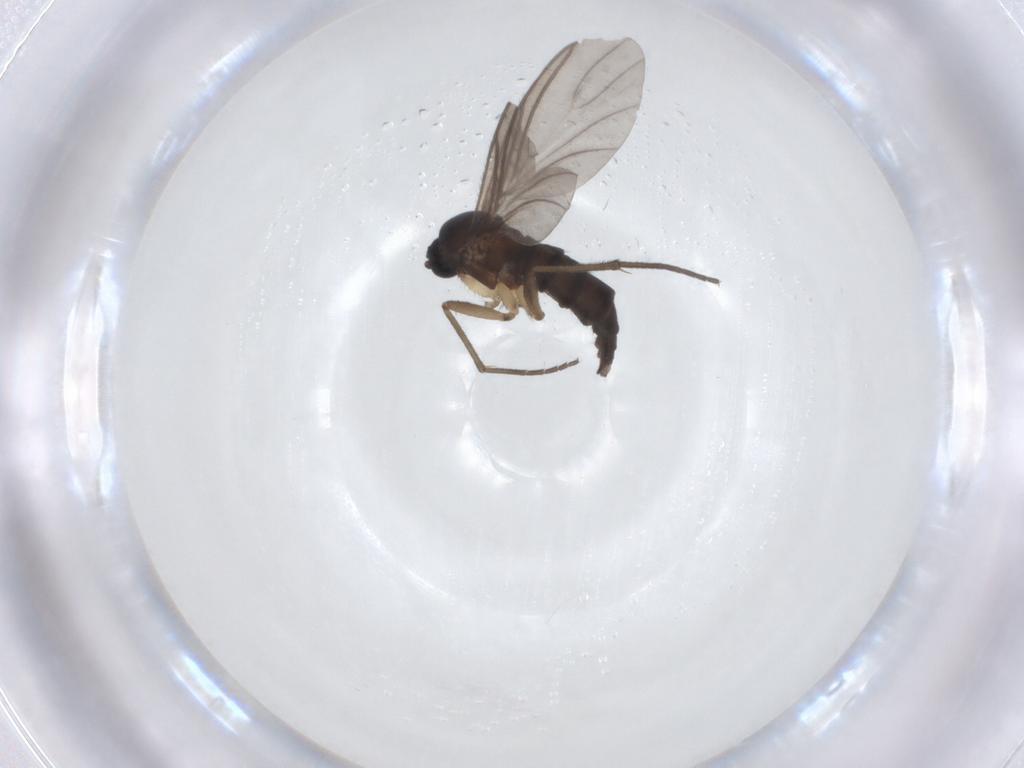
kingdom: Animalia
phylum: Arthropoda
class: Insecta
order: Diptera
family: Sciaridae
